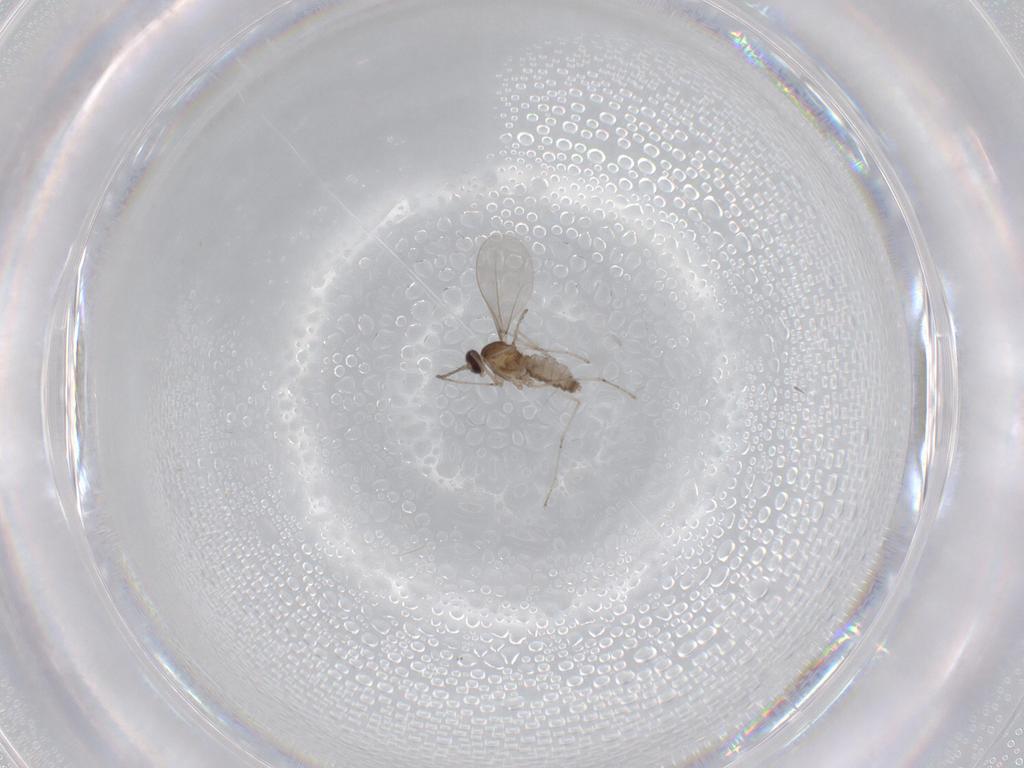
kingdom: Animalia
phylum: Arthropoda
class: Insecta
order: Diptera
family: Cecidomyiidae
